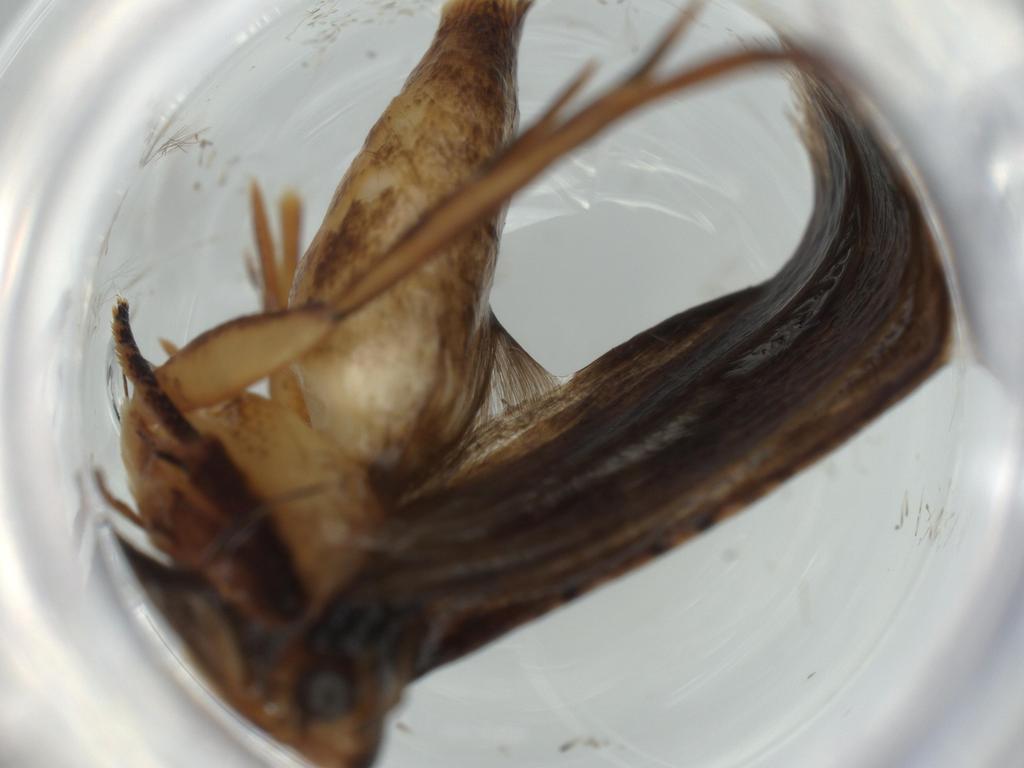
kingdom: Animalia
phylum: Arthropoda
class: Insecta
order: Lepidoptera
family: Gelechiidae
